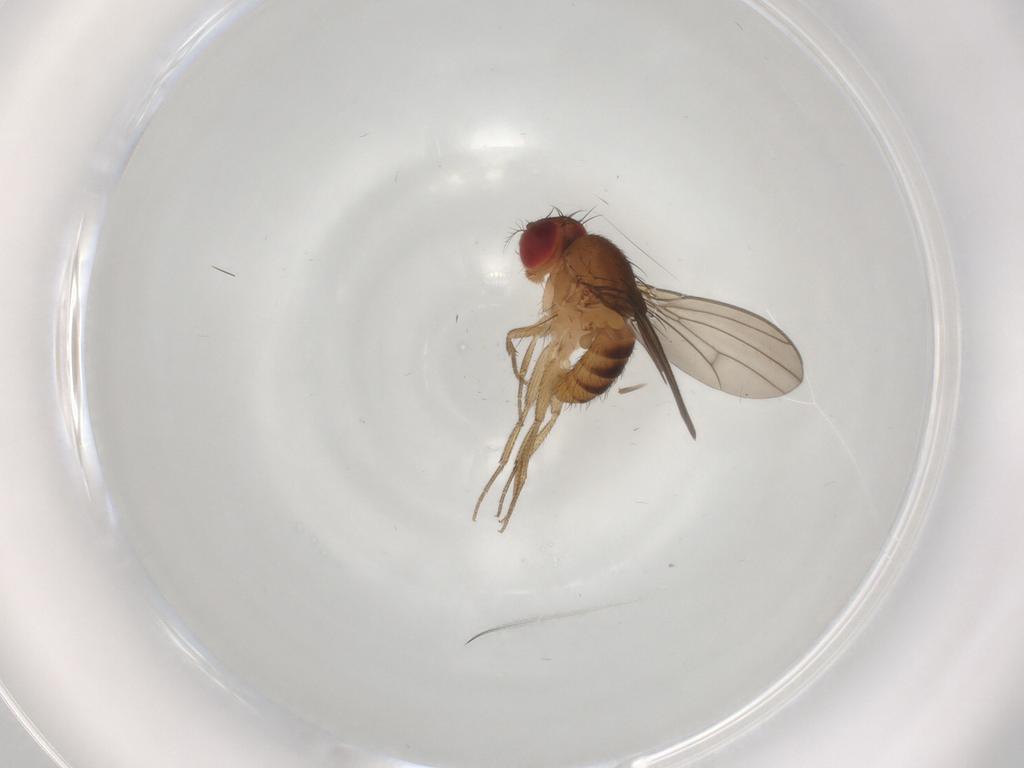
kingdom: Animalia
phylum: Arthropoda
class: Insecta
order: Diptera
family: Drosophilidae
